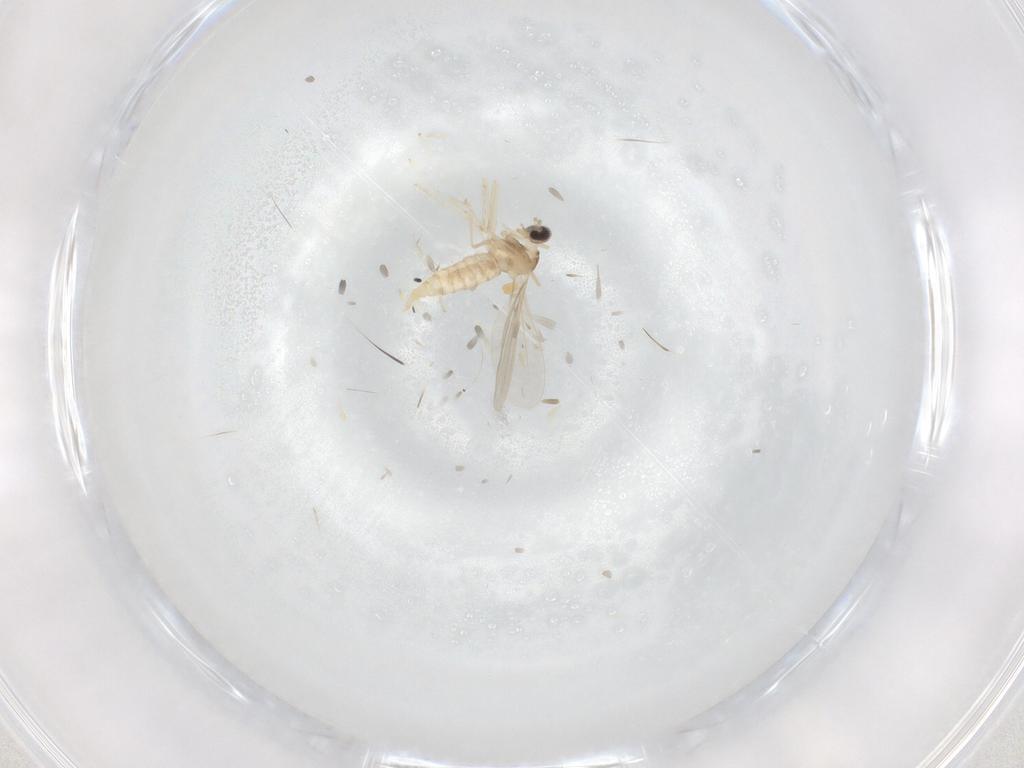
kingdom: Animalia
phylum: Arthropoda
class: Insecta
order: Diptera
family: Cecidomyiidae
